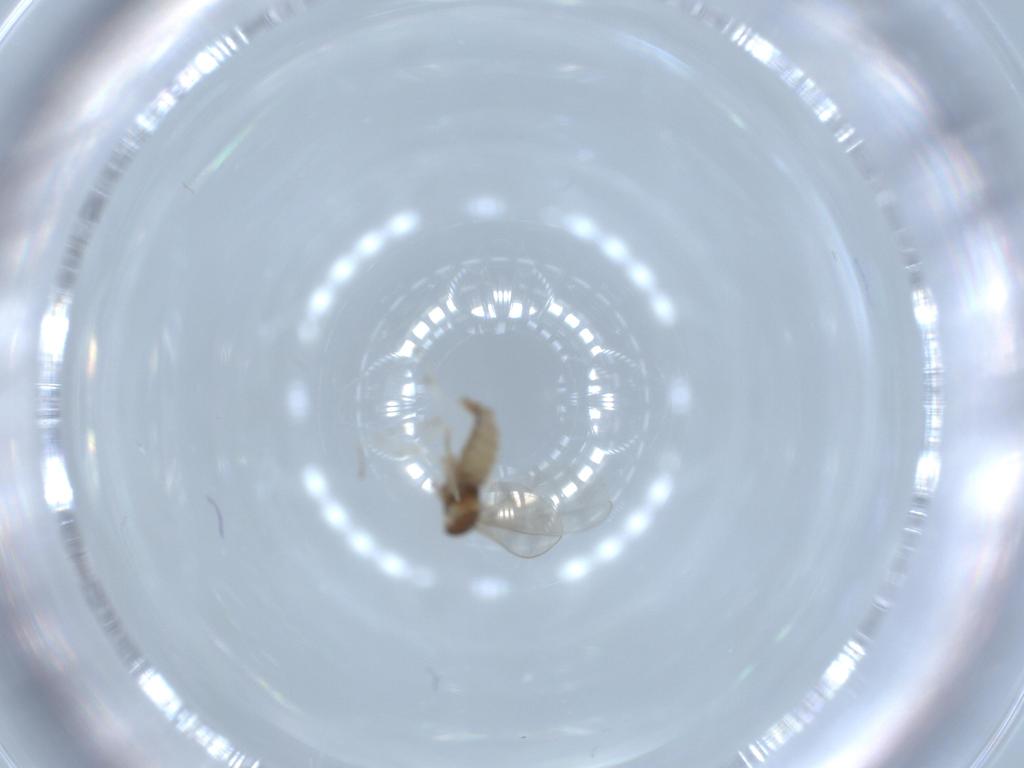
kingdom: Animalia
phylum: Arthropoda
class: Insecta
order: Diptera
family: Cecidomyiidae
